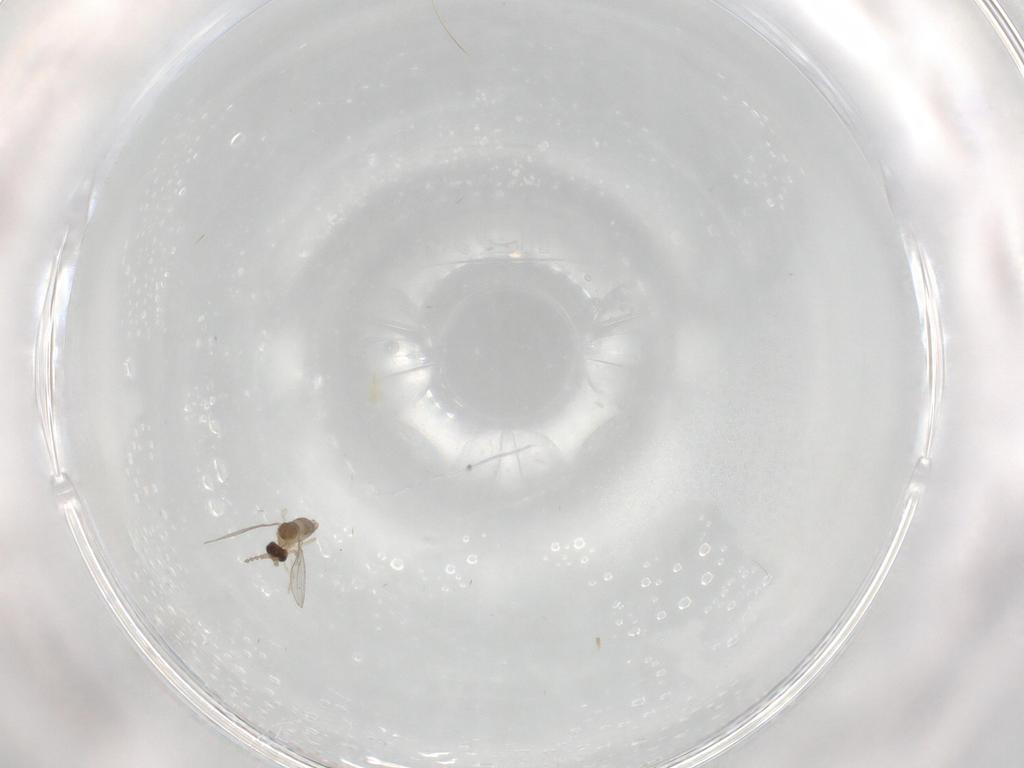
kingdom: Animalia
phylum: Arthropoda
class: Insecta
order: Diptera
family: Cecidomyiidae
